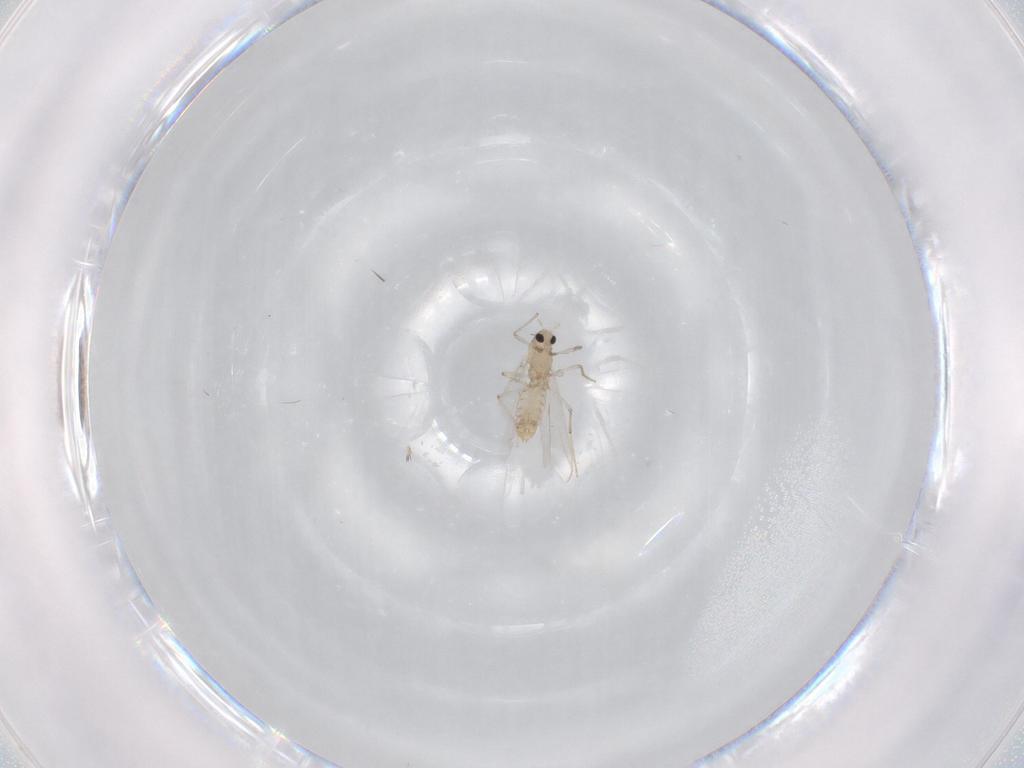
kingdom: Animalia
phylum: Arthropoda
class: Insecta
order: Diptera
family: Chironomidae
